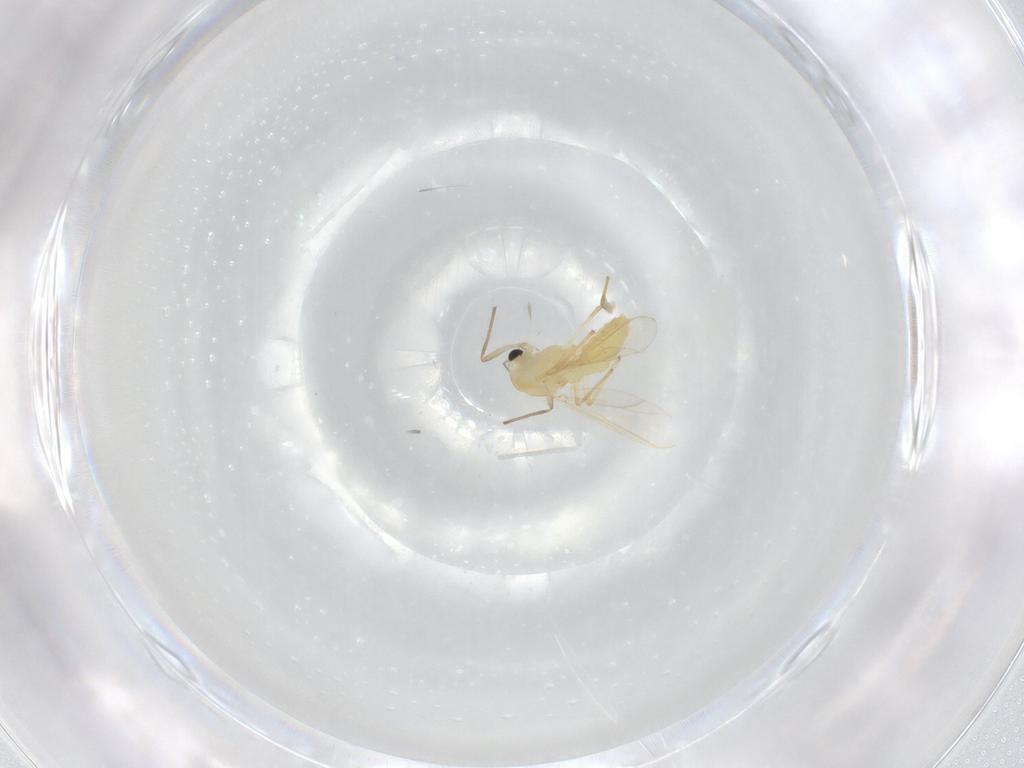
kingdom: Animalia
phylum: Arthropoda
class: Insecta
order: Diptera
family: Chironomidae
